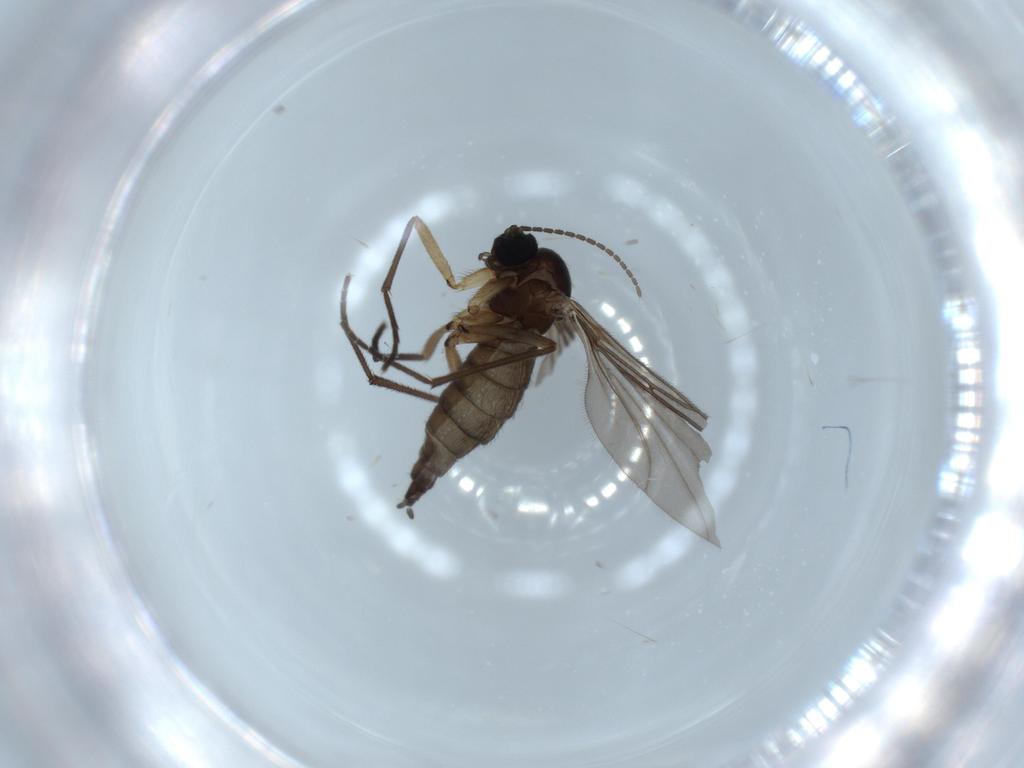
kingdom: Animalia
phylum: Arthropoda
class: Insecta
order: Diptera
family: Sciaridae
